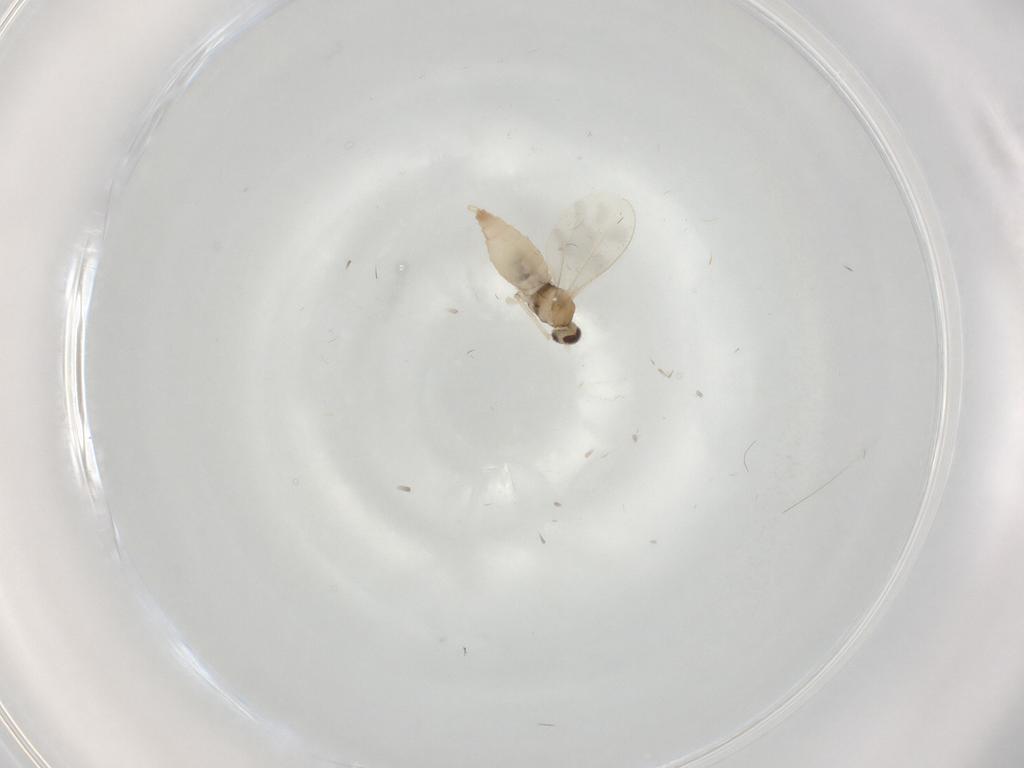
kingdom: Animalia
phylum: Arthropoda
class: Insecta
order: Diptera
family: Cecidomyiidae
